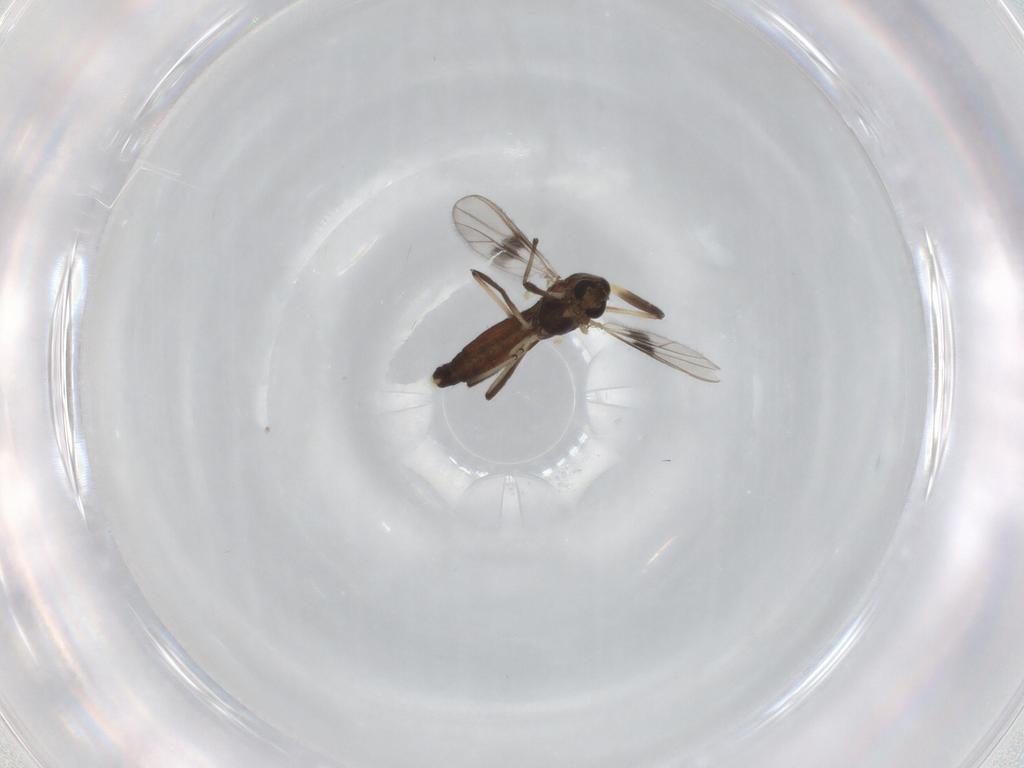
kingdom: Animalia
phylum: Arthropoda
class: Insecta
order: Diptera
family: Chironomidae
